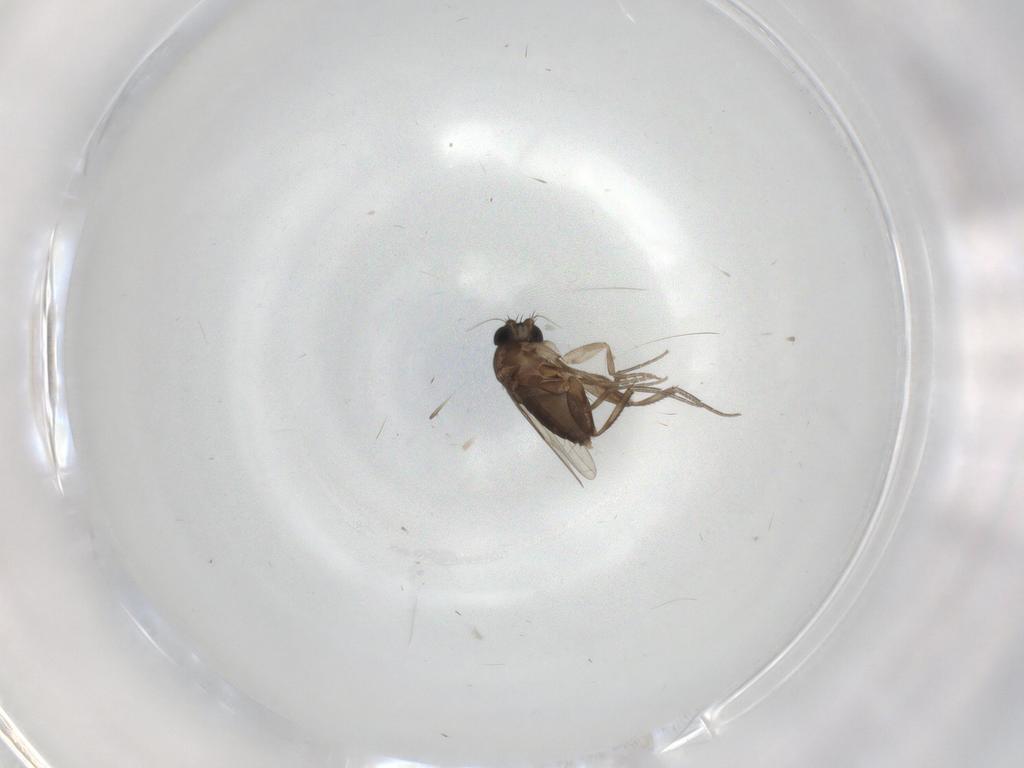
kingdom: Animalia
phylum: Arthropoda
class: Insecta
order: Diptera
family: Phoridae
